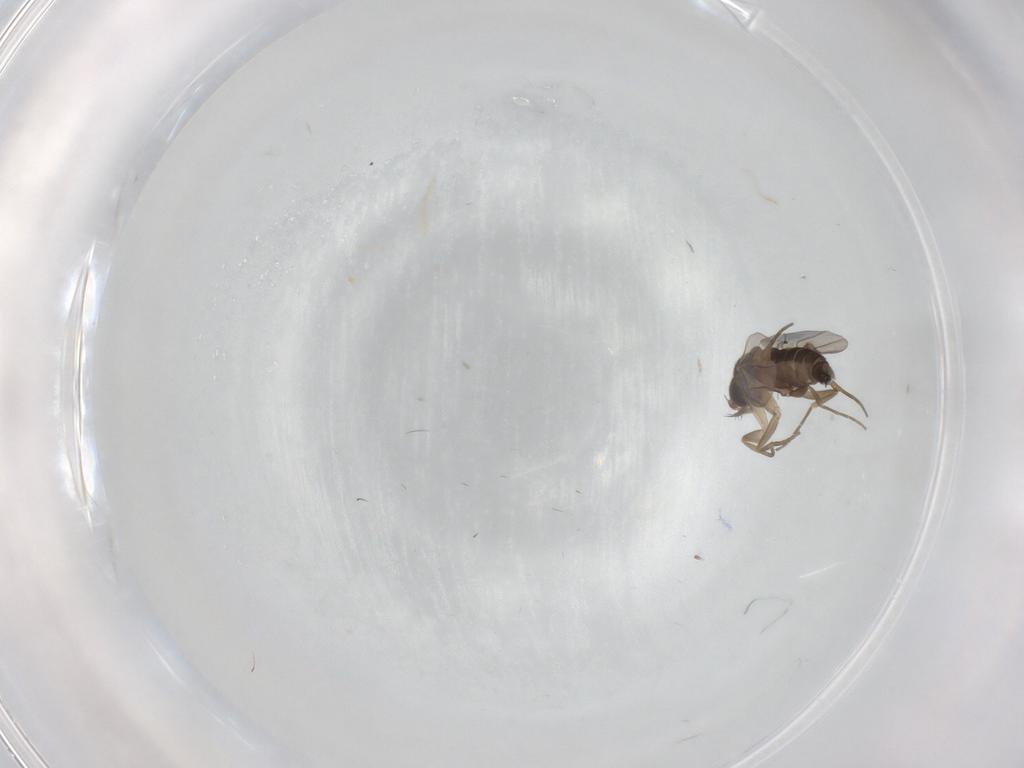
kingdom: Animalia
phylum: Arthropoda
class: Insecta
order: Diptera
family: Phoridae
